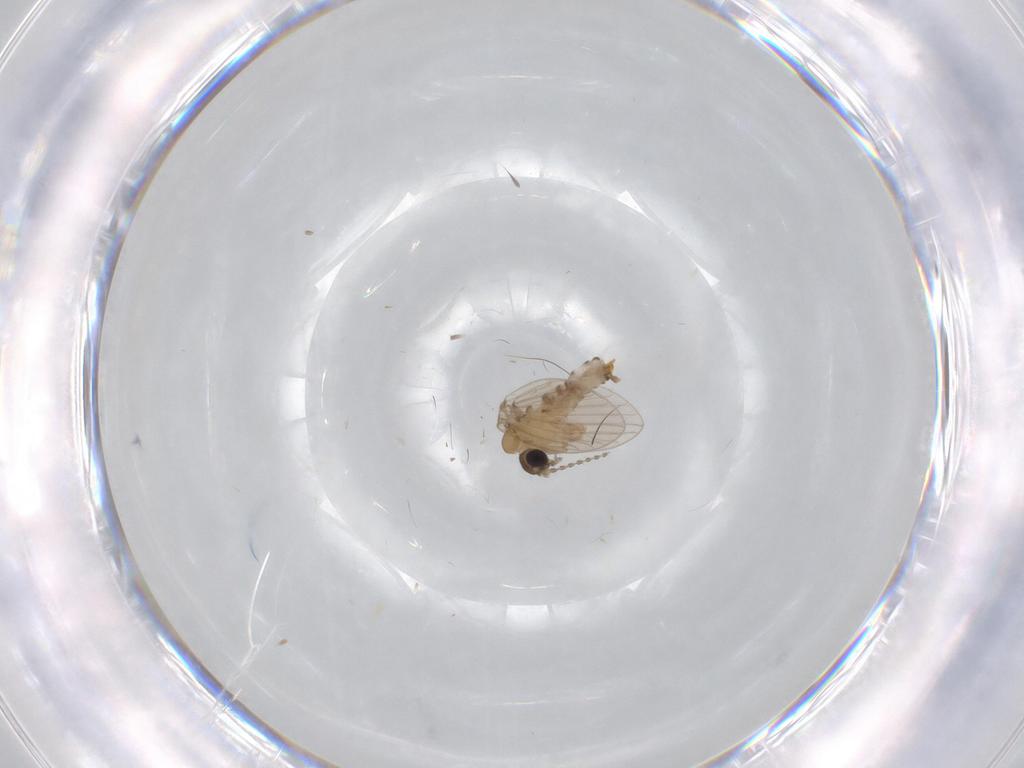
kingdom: Animalia
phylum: Arthropoda
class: Insecta
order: Diptera
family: Psychodidae
